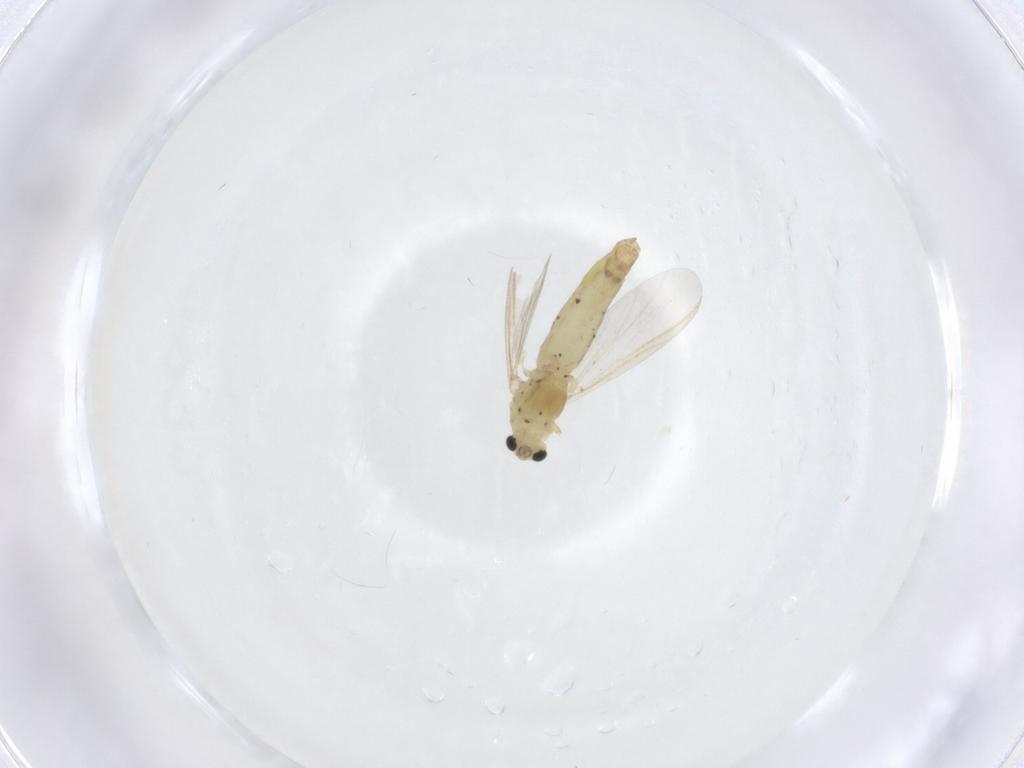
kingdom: Animalia
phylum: Arthropoda
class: Insecta
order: Diptera
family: Chironomidae
